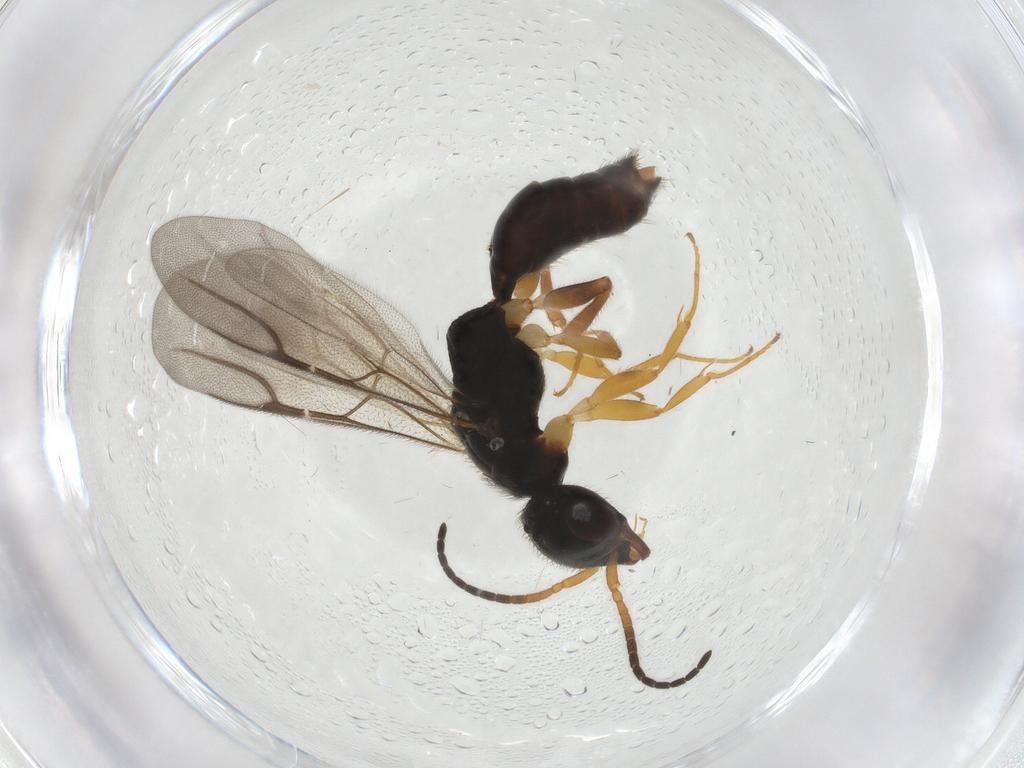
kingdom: Animalia
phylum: Arthropoda
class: Insecta
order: Hymenoptera
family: Bethylidae
